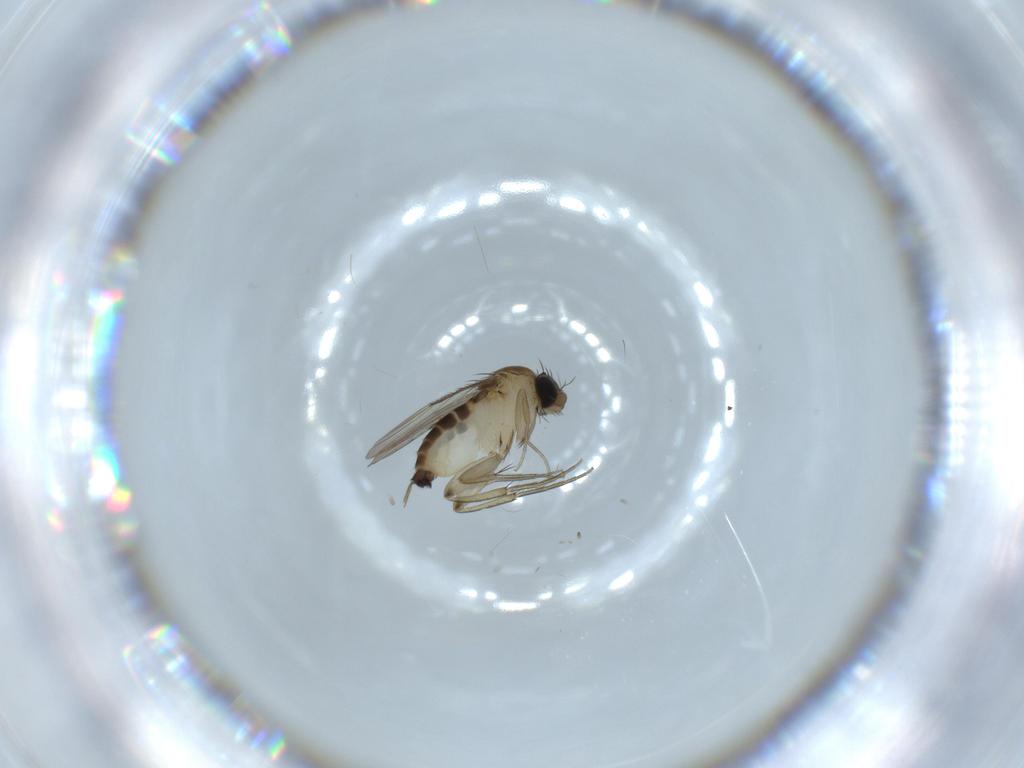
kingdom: Animalia
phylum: Arthropoda
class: Insecta
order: Diptera
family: Phoridae
